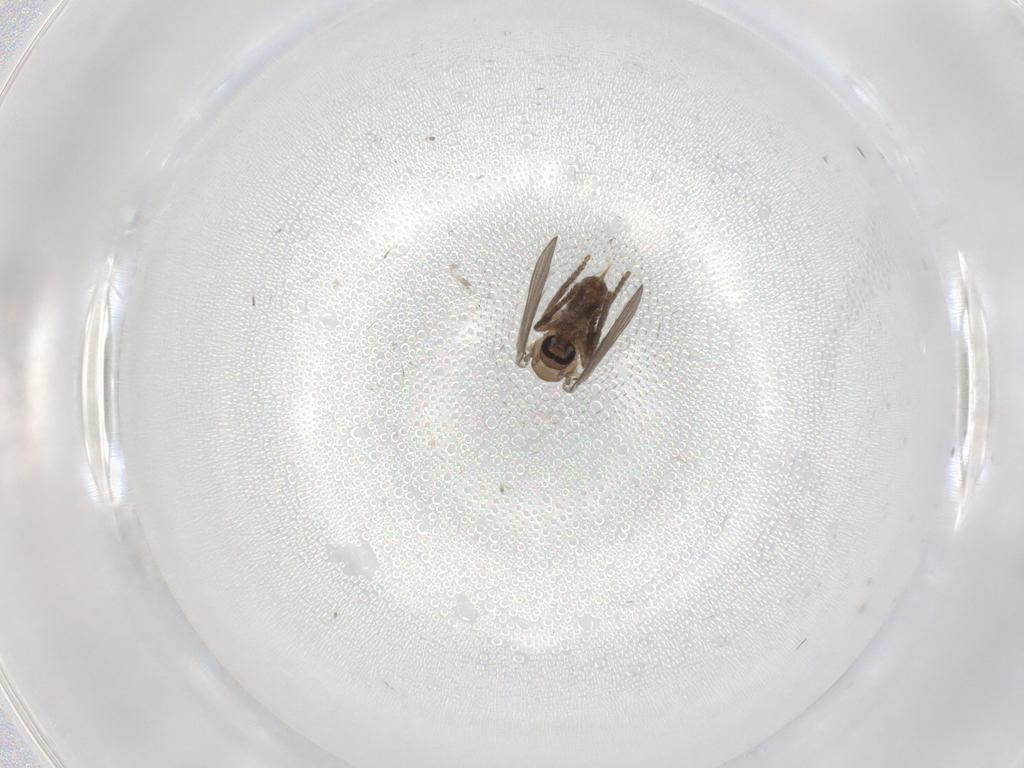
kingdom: Animalia
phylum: Arthropoda
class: Insecta
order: Diptera
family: Psychodidae
